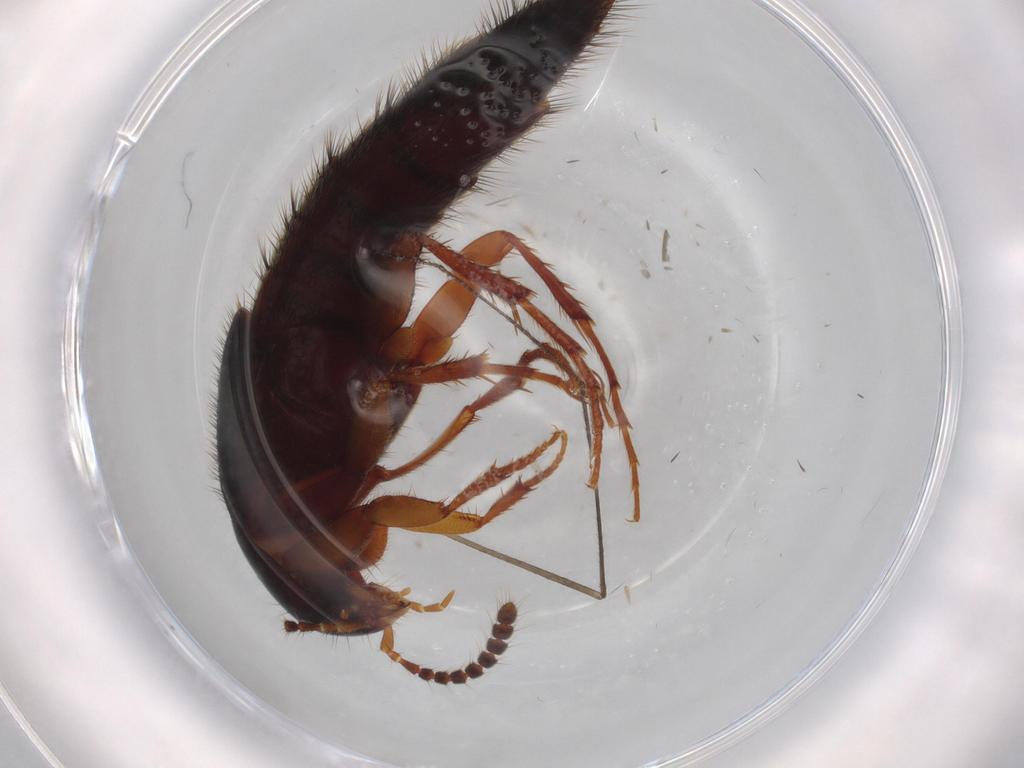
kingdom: Animalia
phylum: Arthropoda
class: Insecta
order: Coleoptera
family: Staphylinidae
